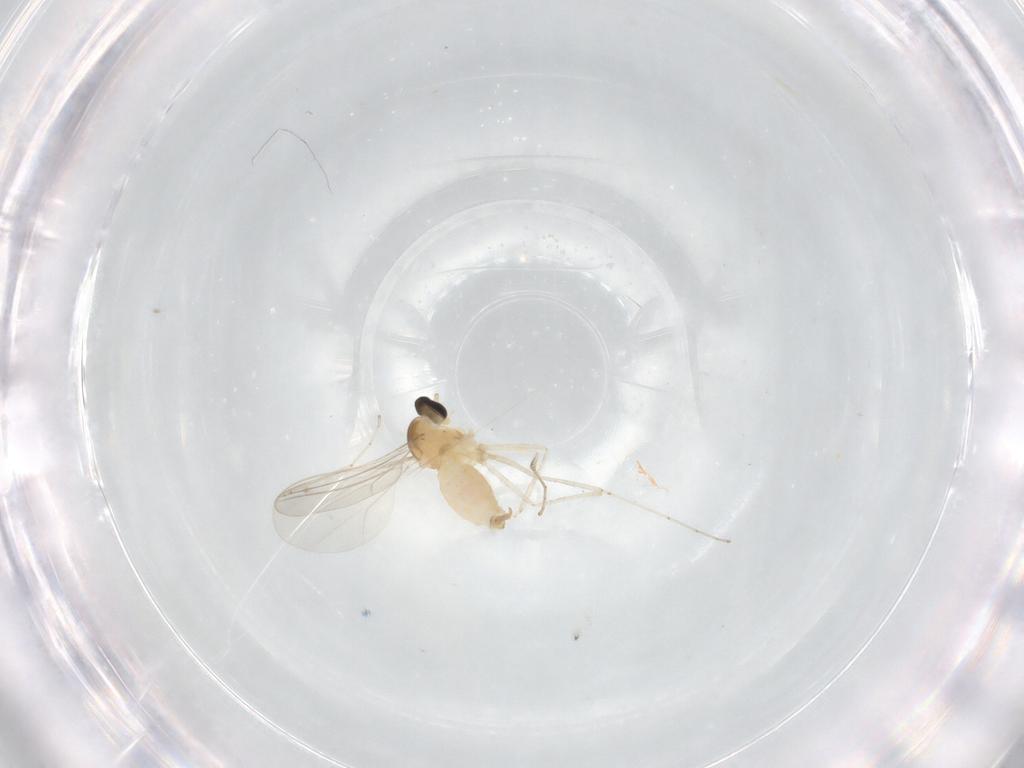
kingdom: Animalia
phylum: Arthropoda
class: Insecta
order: Diptera
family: Cecidomyiidae
